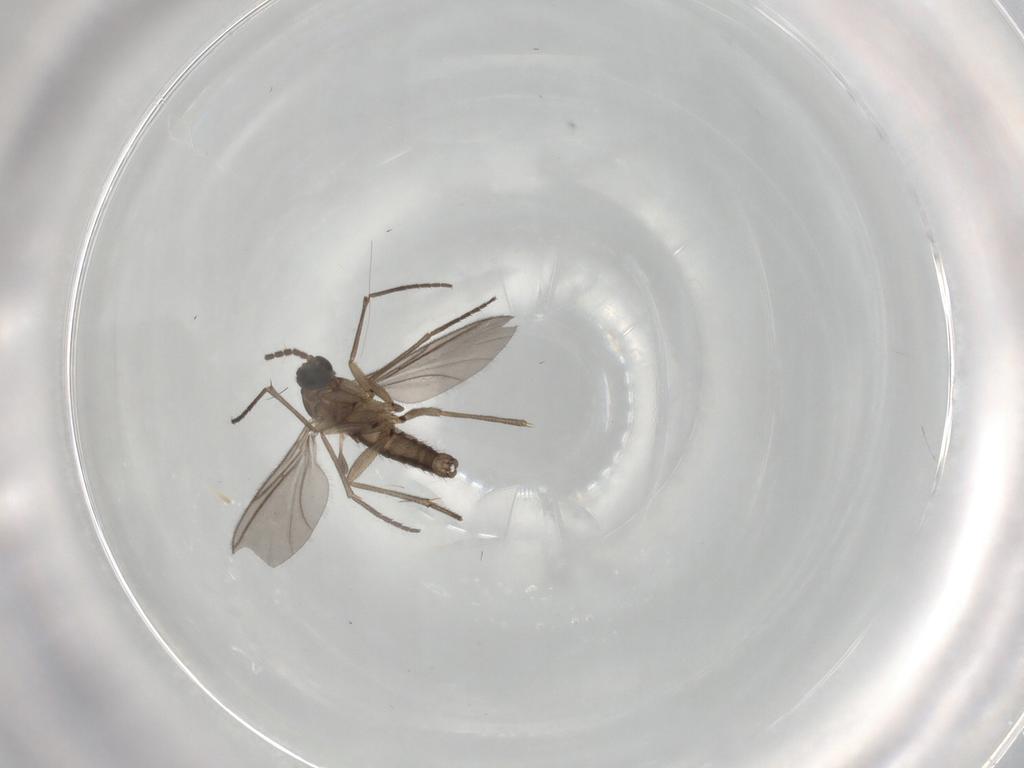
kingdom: Animalia
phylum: Arthropoda
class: Insecta
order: Diptera
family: Sciaridae
